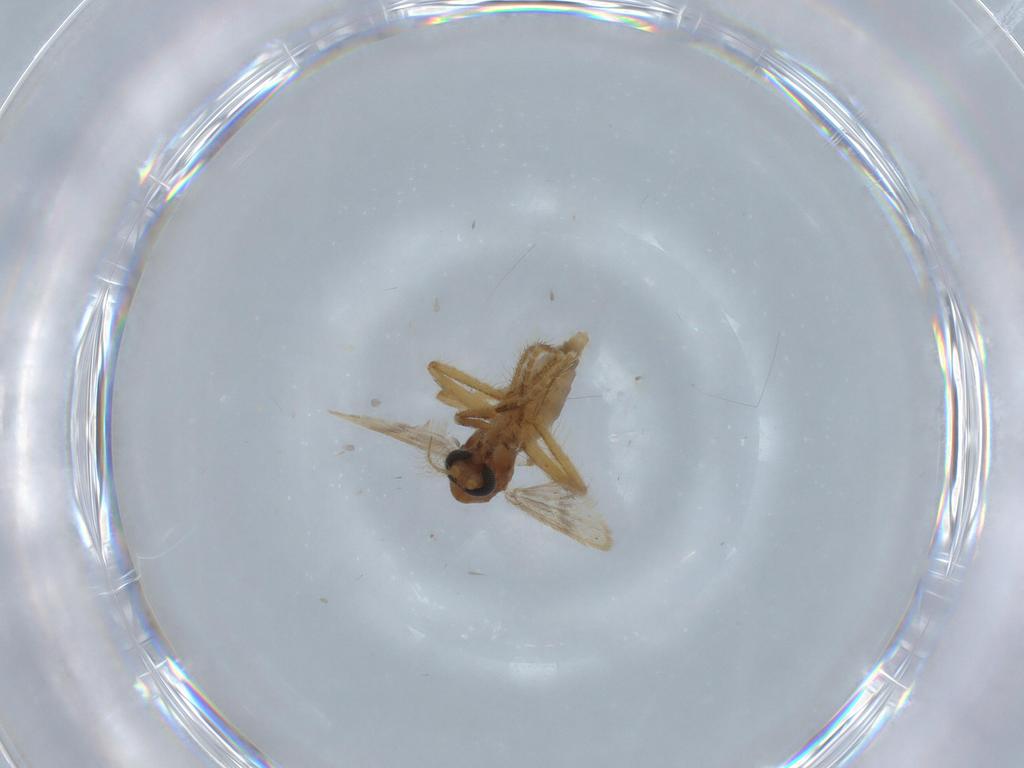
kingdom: Animalia
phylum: Arthropoda
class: Insecta
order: Diptera
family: Corethrellidae
